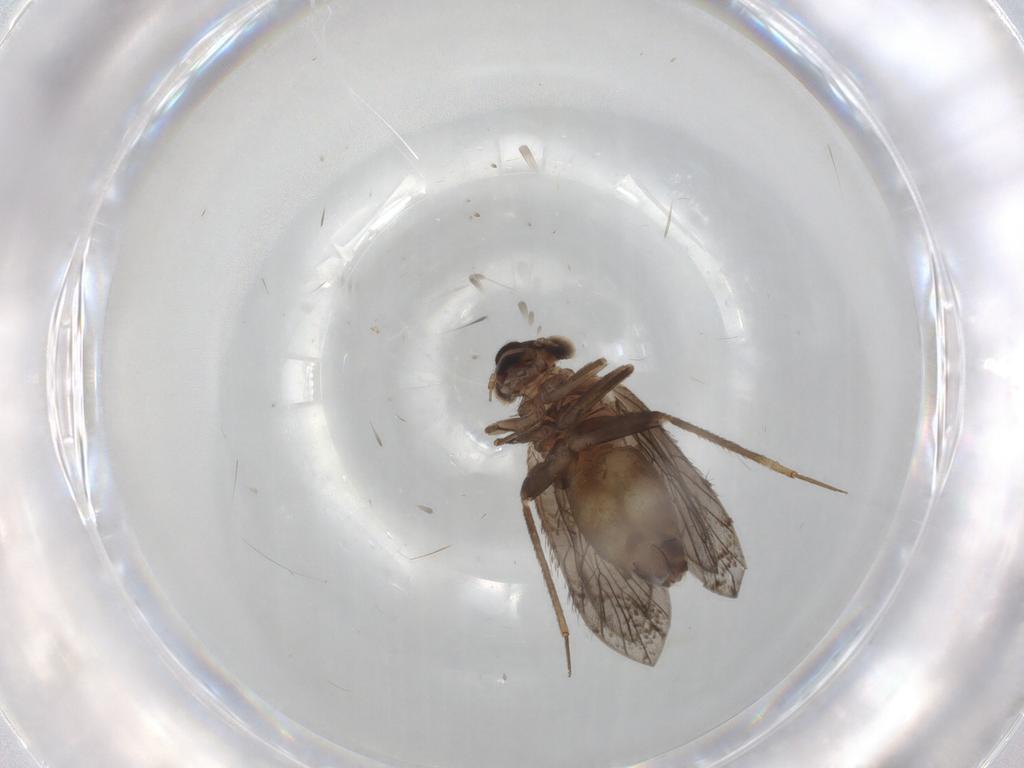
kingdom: Animalia
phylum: Arthropoda
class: Insecta
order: Psocodea
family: Lepidopsocidae
